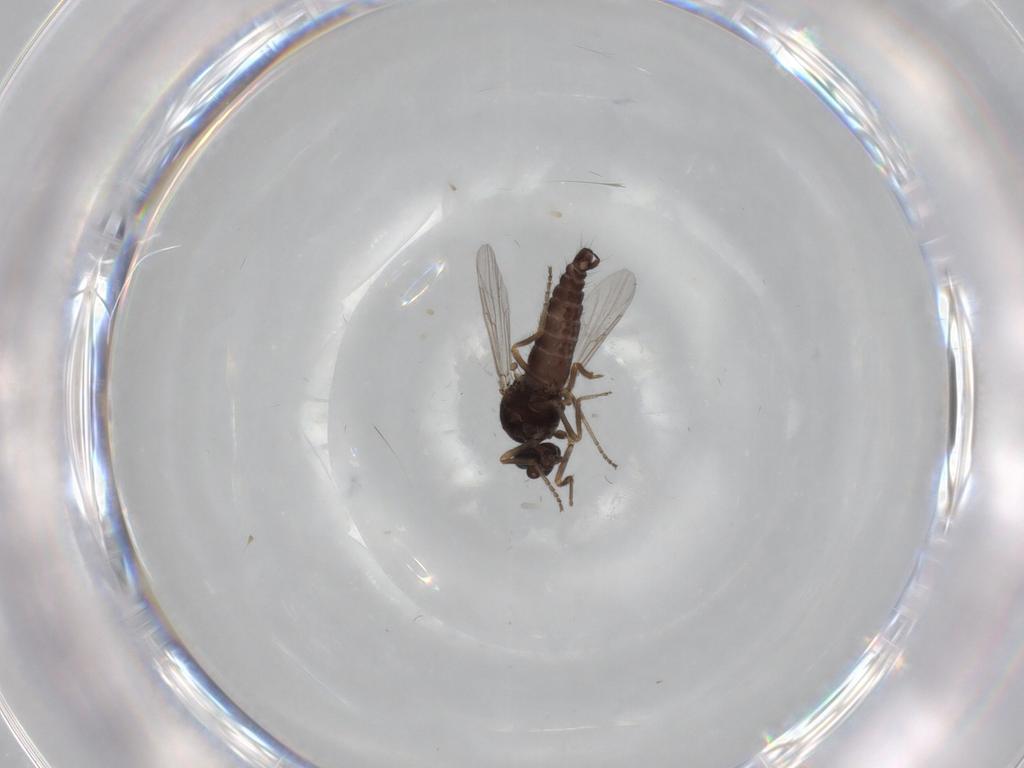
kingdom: Animalia
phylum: Arthropoda
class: Insecta
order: Diptera
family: Ceratopogonidae
